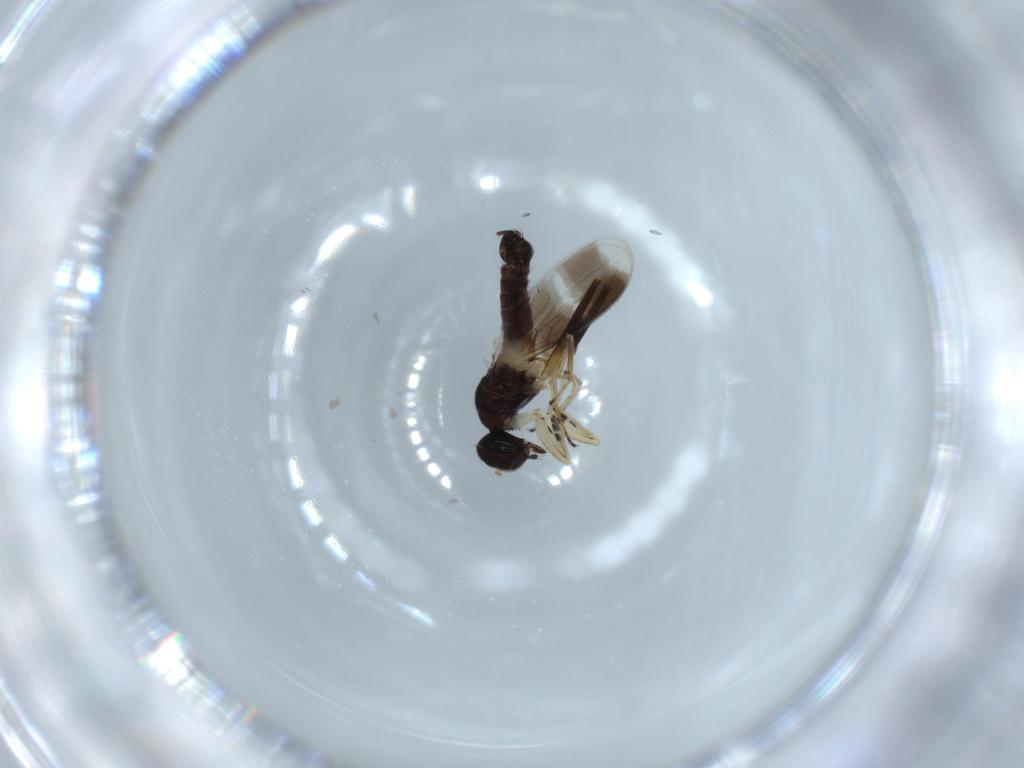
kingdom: Animalia
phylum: Arthropoda
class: Insecta
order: Diptera
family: Hybotidae
